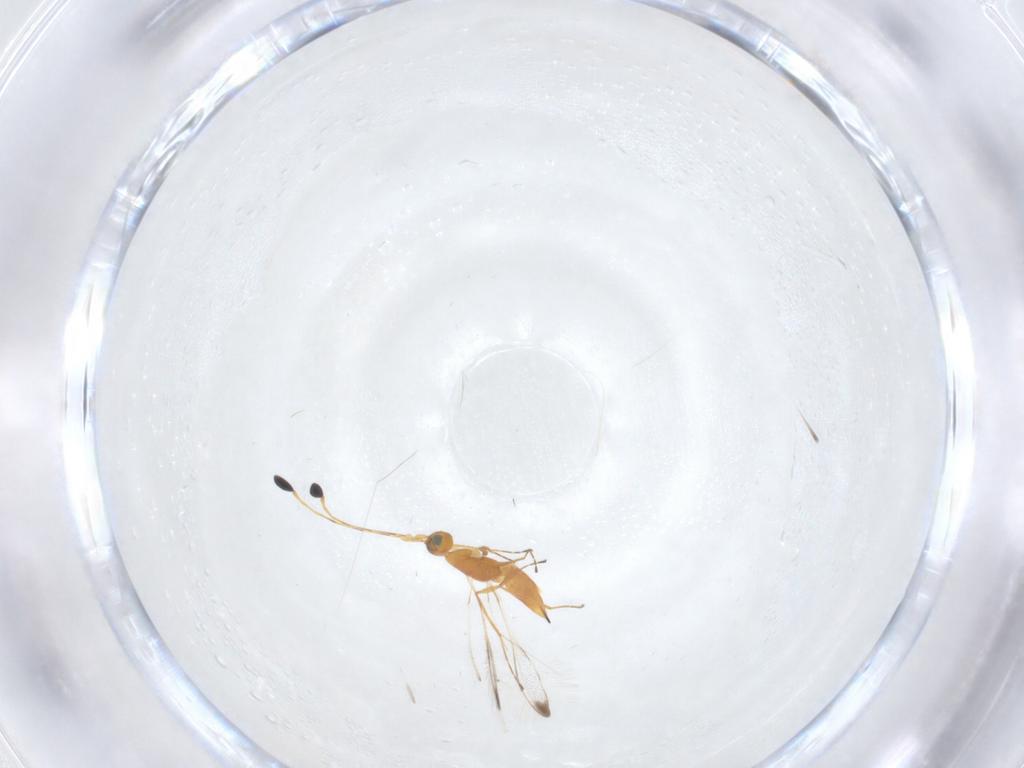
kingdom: Animalia
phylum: Arthropoda
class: Insecta
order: Hymenoptera
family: Mymaridae
